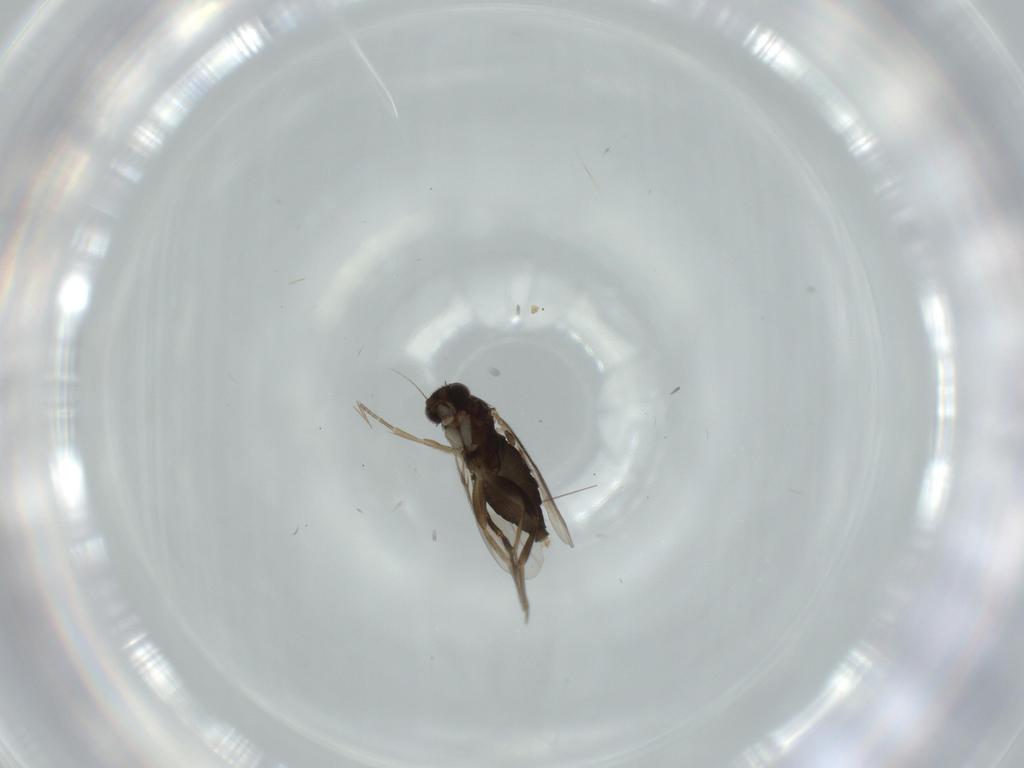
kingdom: Animalia
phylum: Arthropoda
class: Insecta
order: Diptera
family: Phoridae
